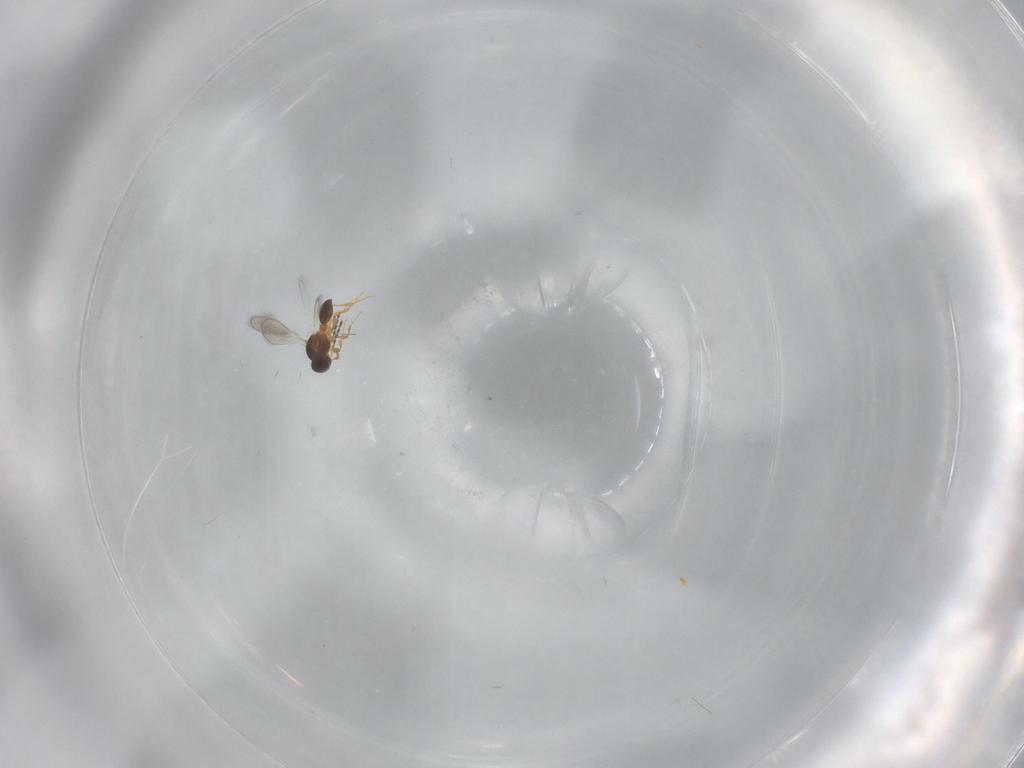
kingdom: Animalia
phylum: Arthropoda
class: Insecta
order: Hymenoptera
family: Platygastridae
